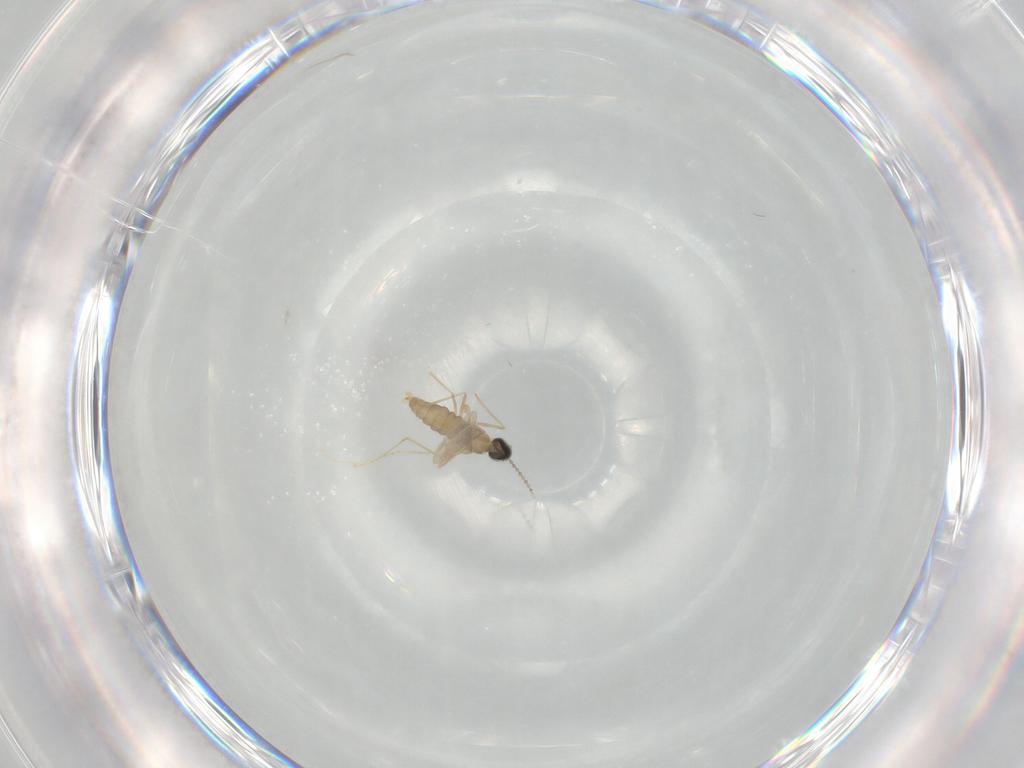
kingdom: Animalia
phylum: Arthropoda
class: Insecta
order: Diptera
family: Cecidomyiidae
